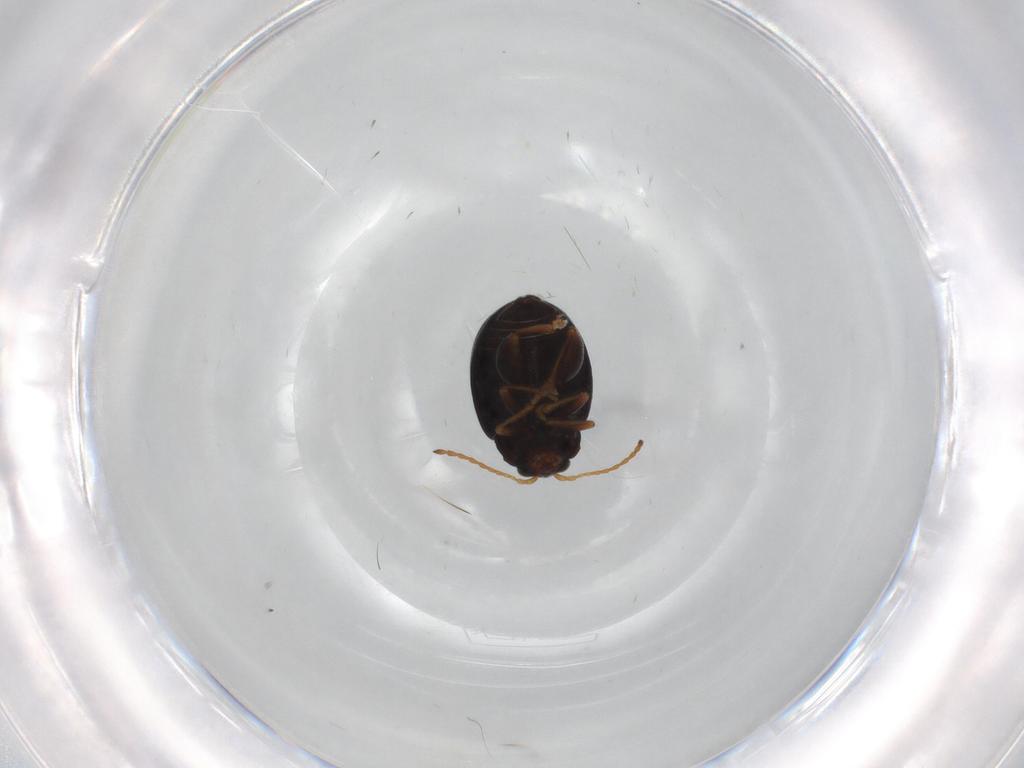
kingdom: Animalia
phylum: Arthropoda
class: Insecta
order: Coleoptera
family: Chrysomelidae
